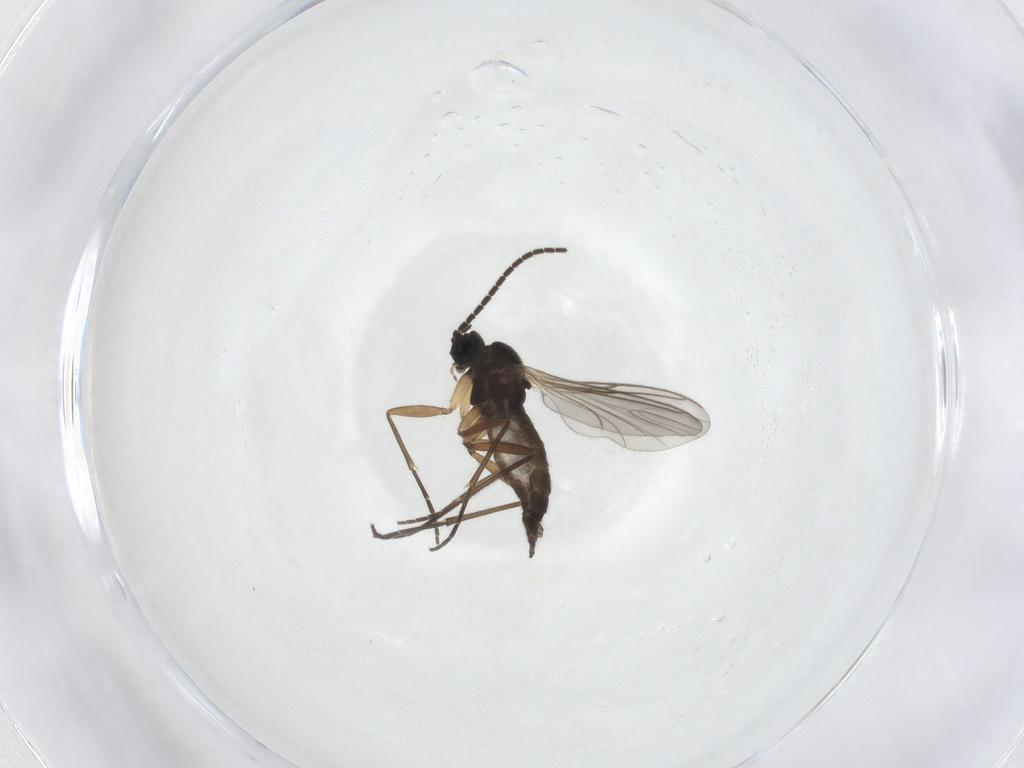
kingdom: Animalia
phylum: Arthropoda
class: Insecta
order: Diptera
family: Sciaridae
